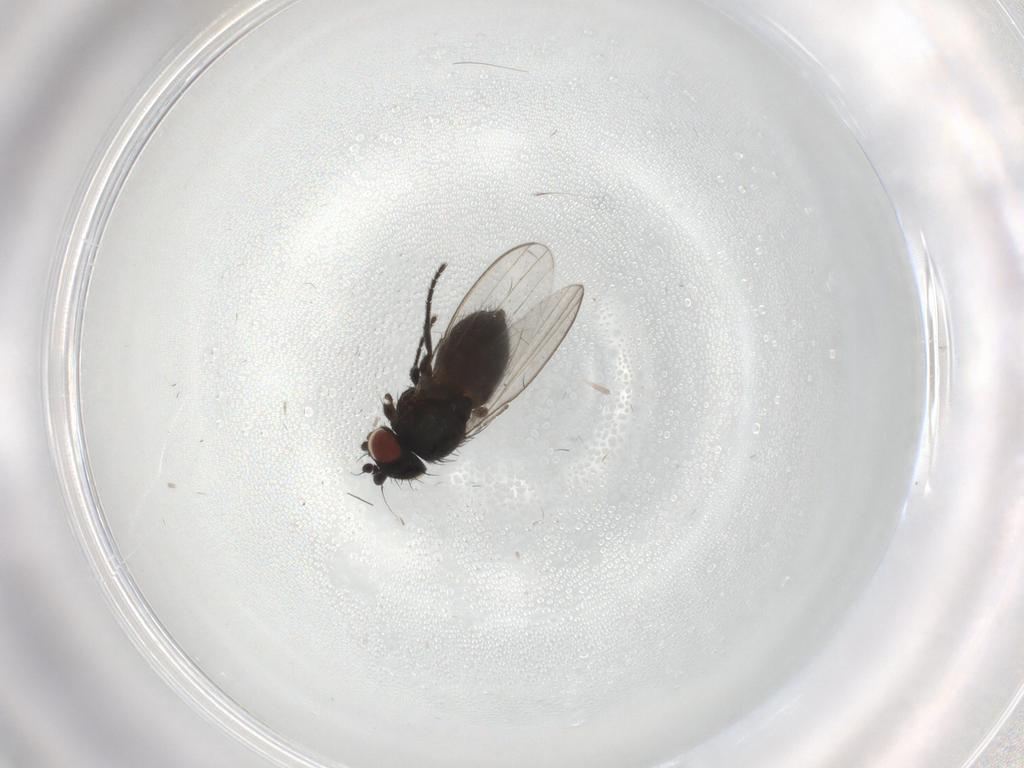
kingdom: Animalia
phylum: Arthropoda
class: Insecta
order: Diptera
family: Milichiidae
